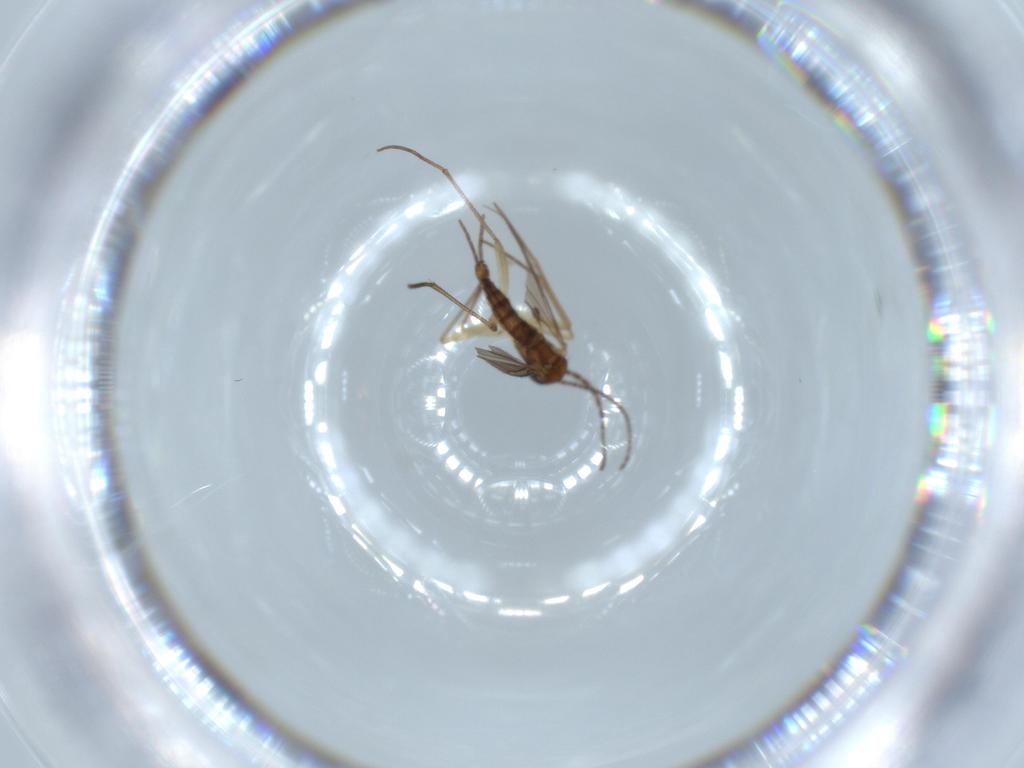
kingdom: Animalia
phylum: Arthropoda
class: Insecta
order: Diptera
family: Sciaridae
